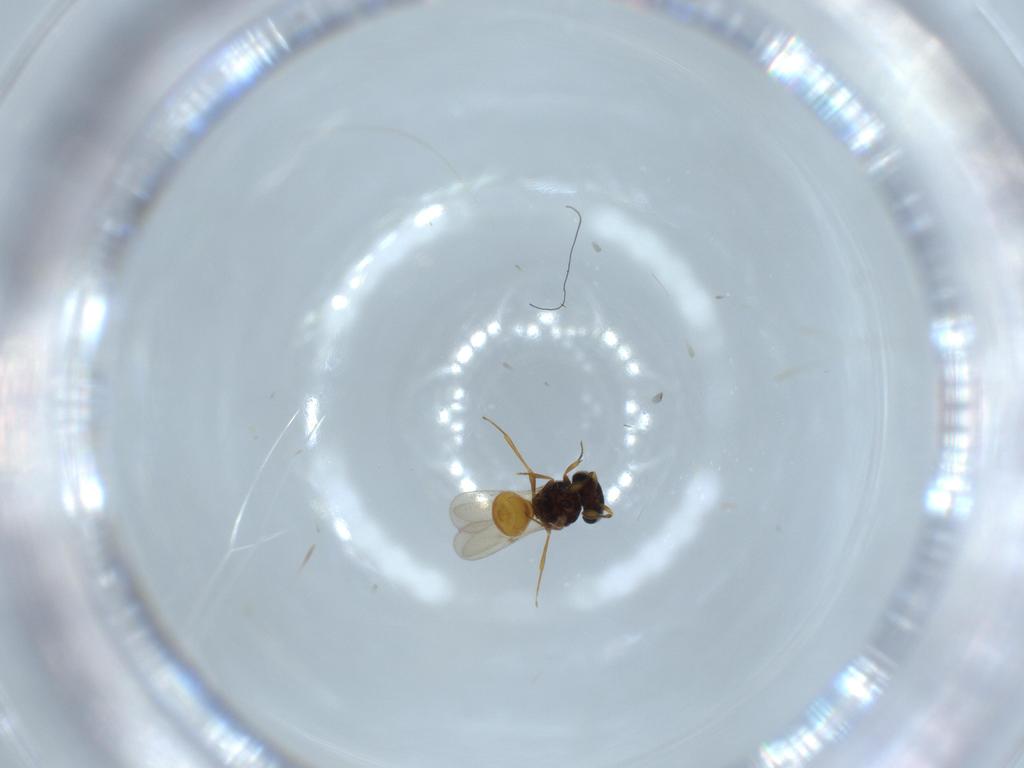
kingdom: Animalia
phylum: Arthropoda
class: Insecta
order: Hymenoptera
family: Scelionidae
